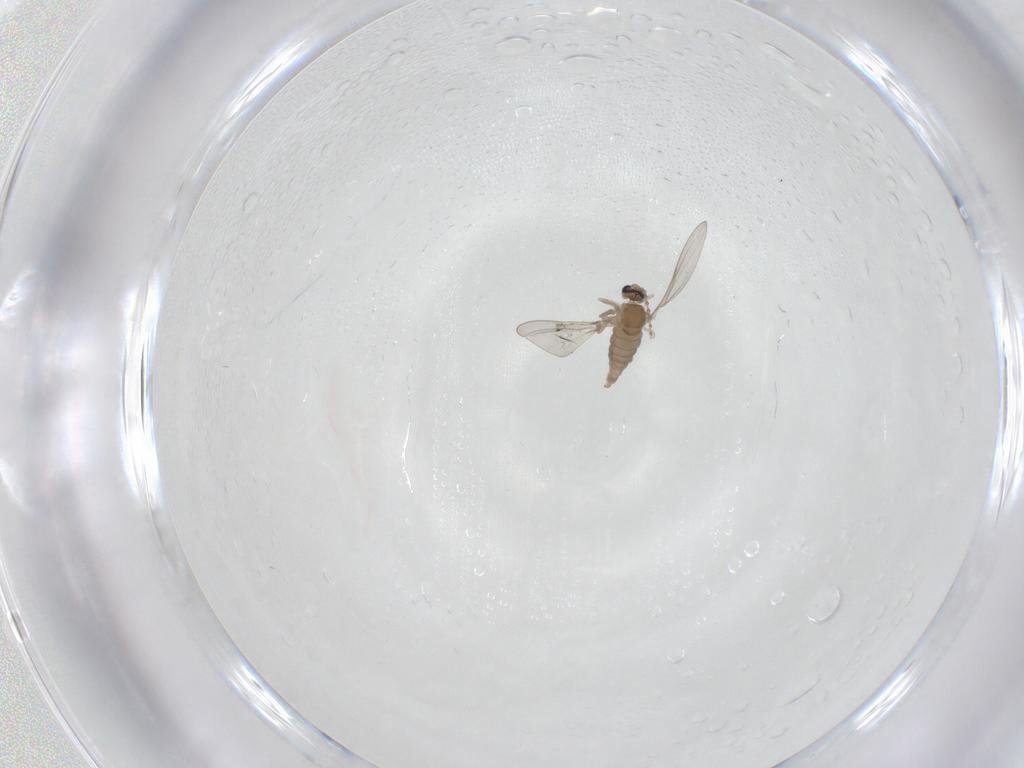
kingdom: Animalia
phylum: Arthropoda
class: Insecta
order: Diptera
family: Cecidomyiidae
